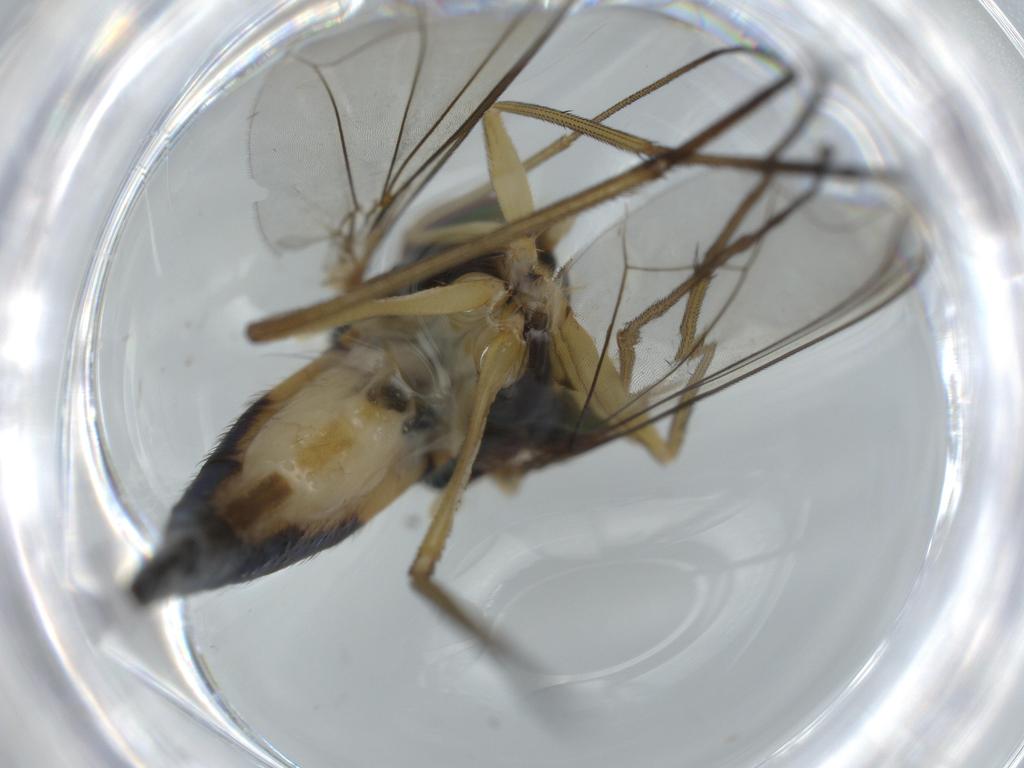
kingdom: Animalia
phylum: Arthropoda
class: Insecta
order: Diptera
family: Dolichopodidae
